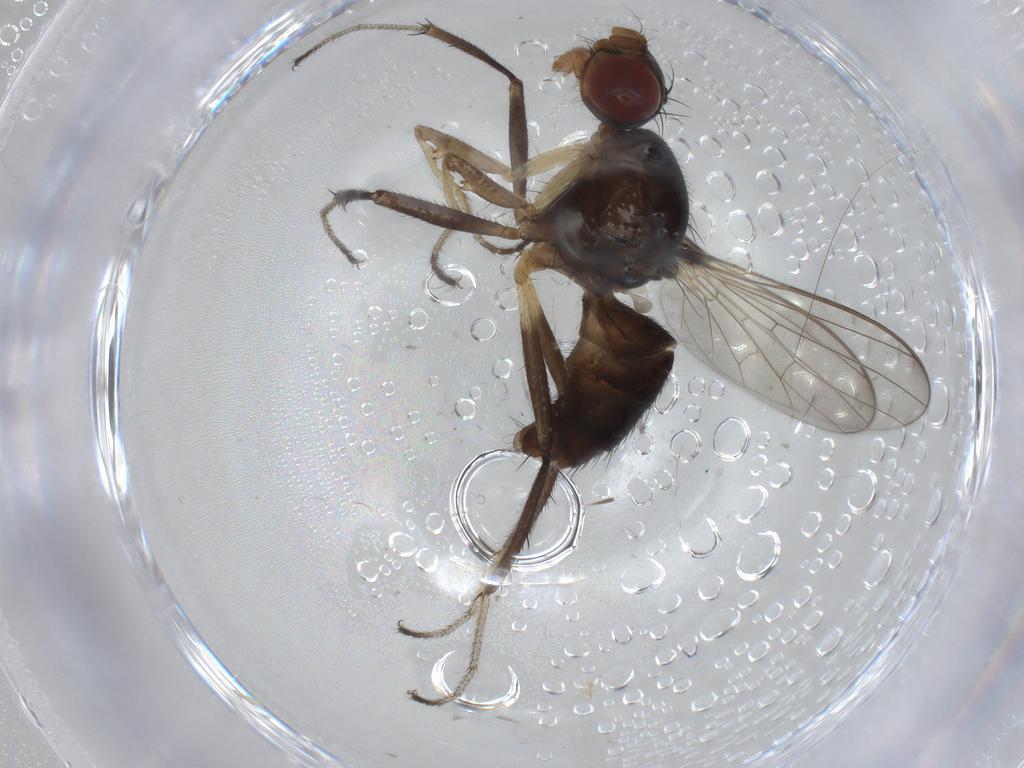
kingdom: Animalia
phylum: Arthropoda
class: Insecta
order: Diptera
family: Sepsidae
